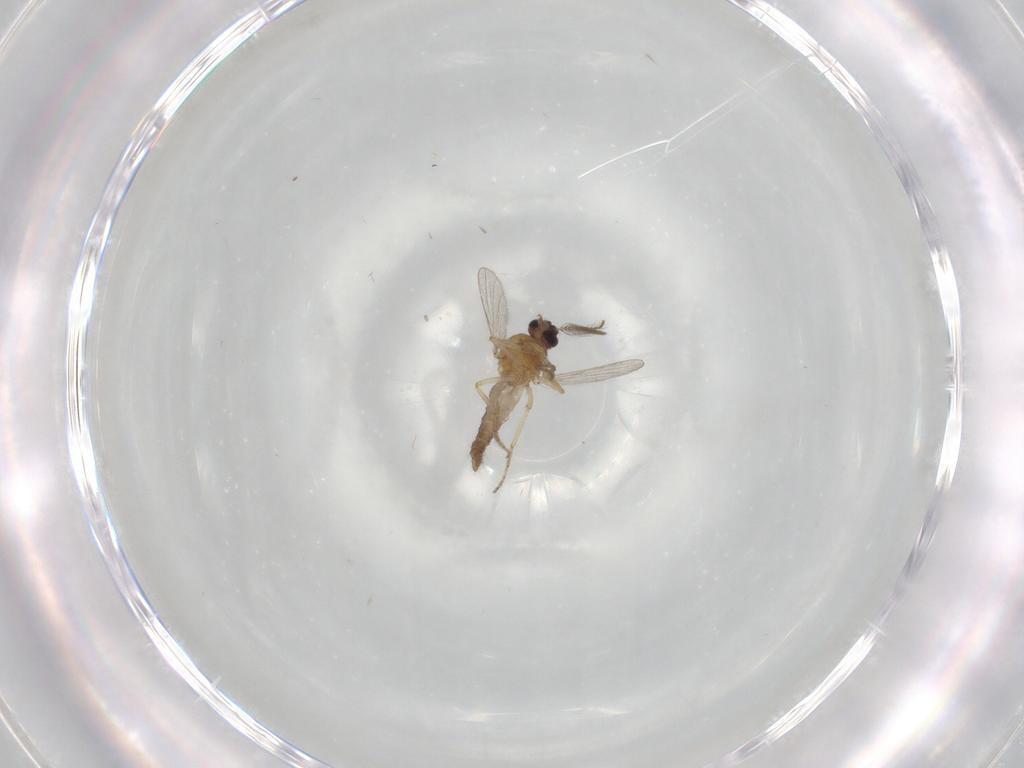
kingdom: Animalia
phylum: Arthropoda
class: Insecta
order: Diptera
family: Ceratopogonidae
